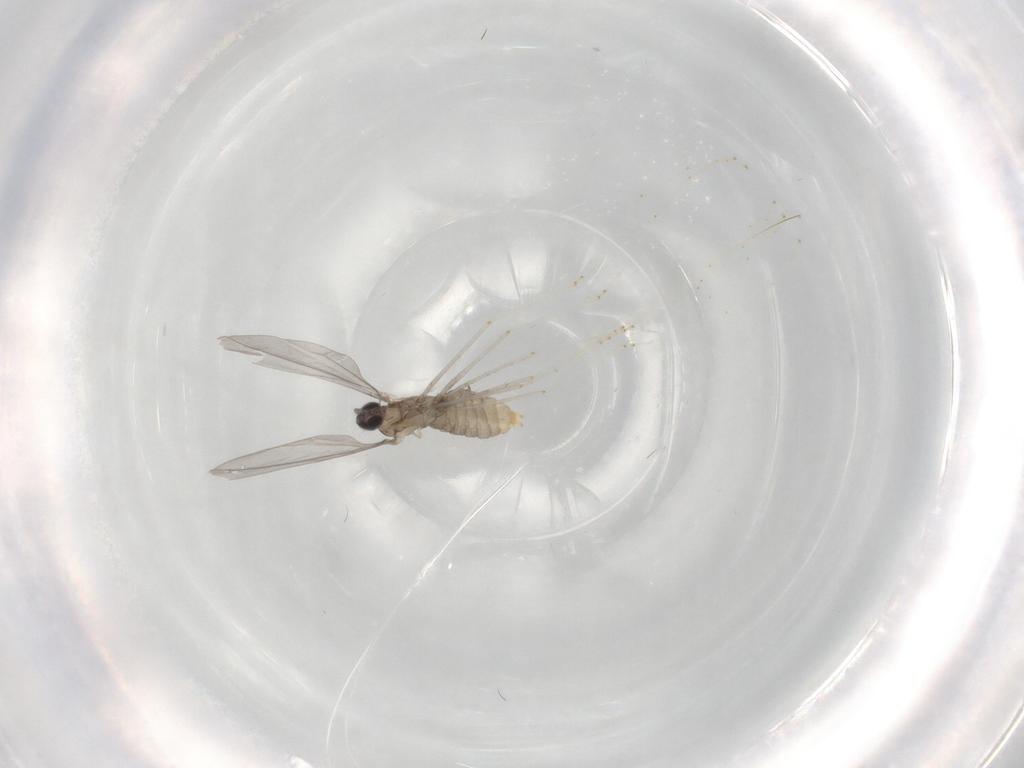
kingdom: Animalia
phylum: Arthropoda
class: Insecta
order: Diptera
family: Cecidomyiidae
